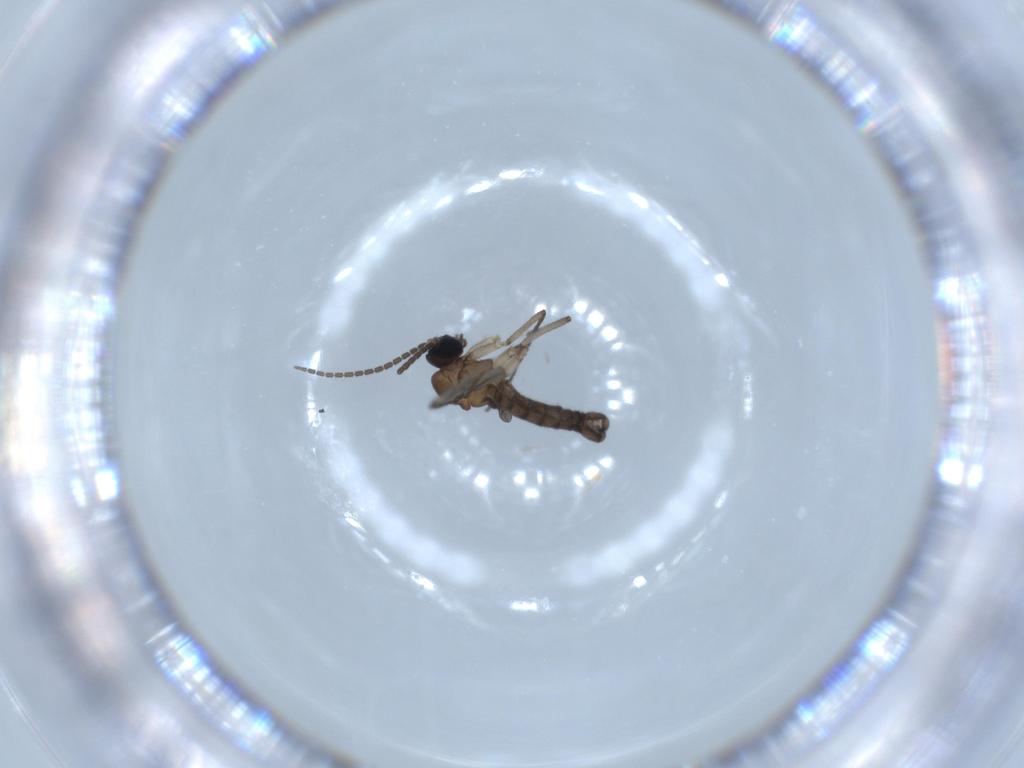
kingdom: Animalia
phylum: Arthropoda
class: Insecta
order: Diptera
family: Sciaridae
